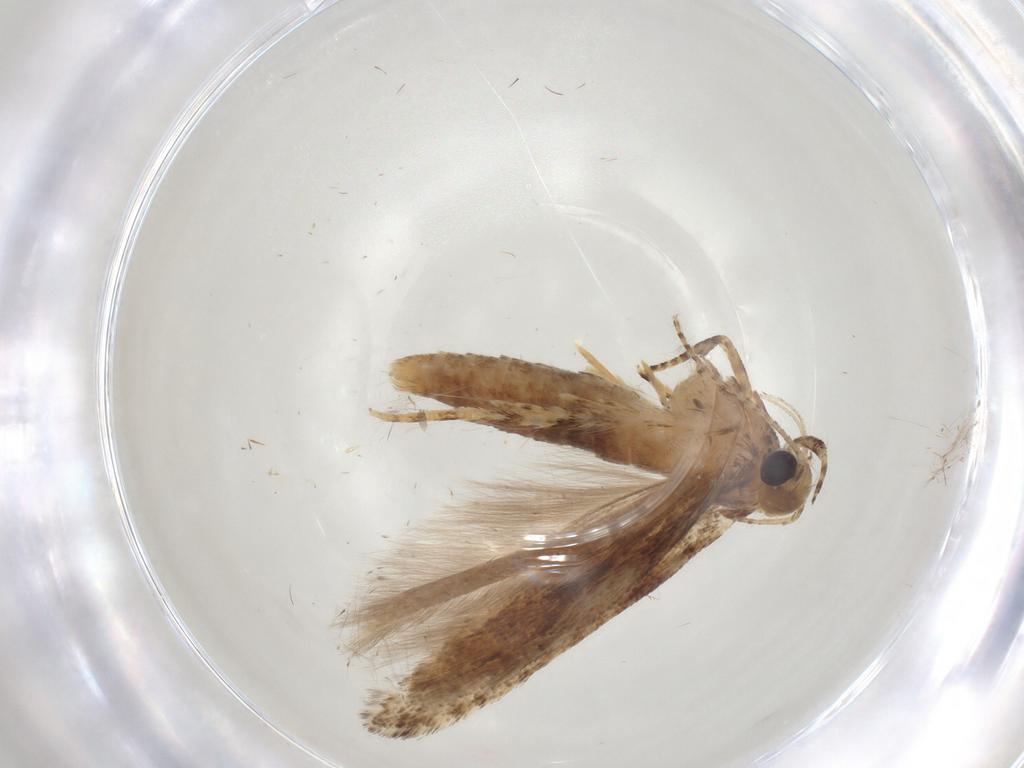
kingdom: Animalia
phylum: Arthropoda
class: Insecta
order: Lepidoptera
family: Gelechiidae
